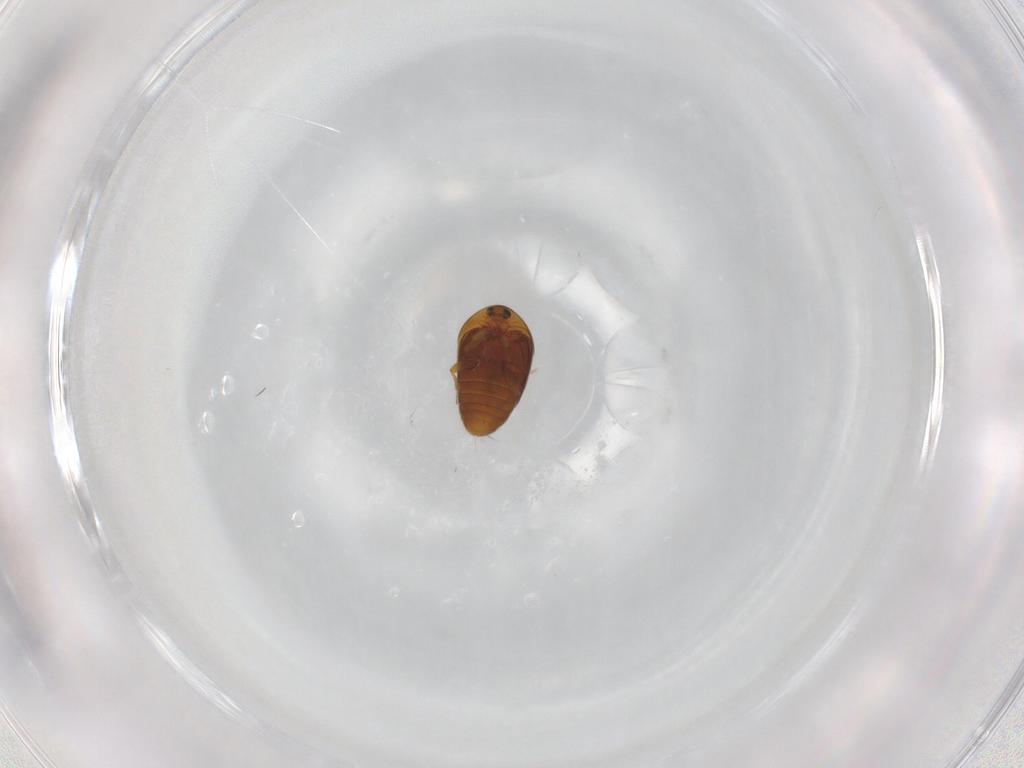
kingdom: Animalia
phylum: Arthropoda
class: Insecta
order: Coleoptera
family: Corylophidae
